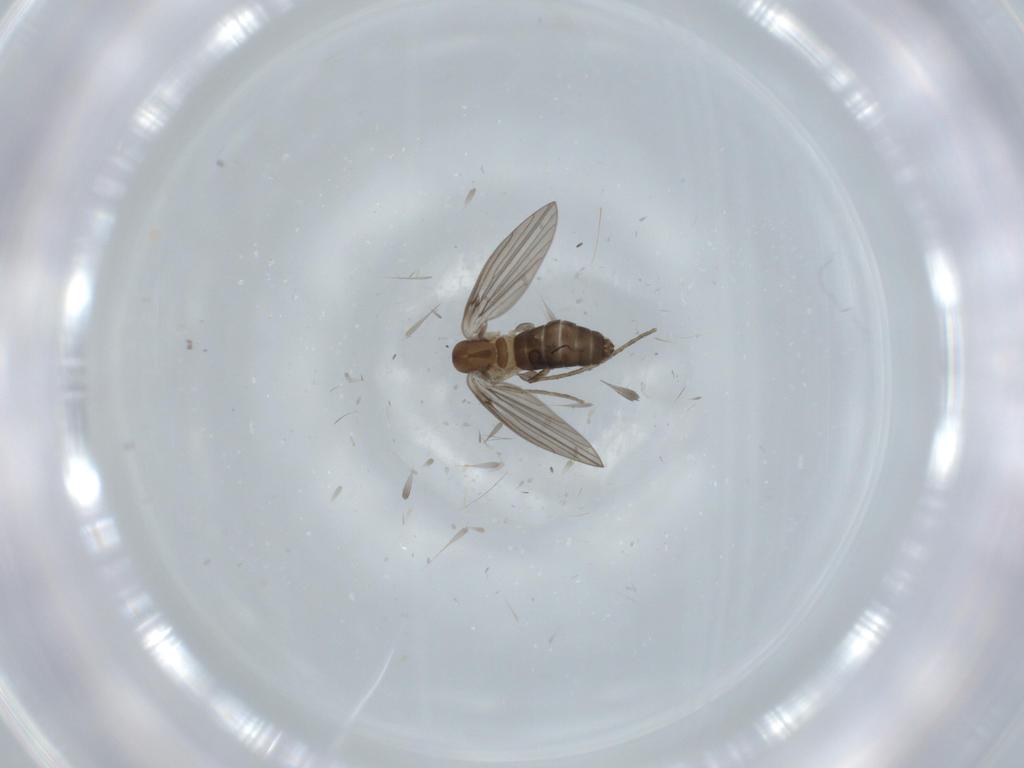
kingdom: Animalia
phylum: Arthropoda
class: Insecta
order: Diptera
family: Psychodidae
